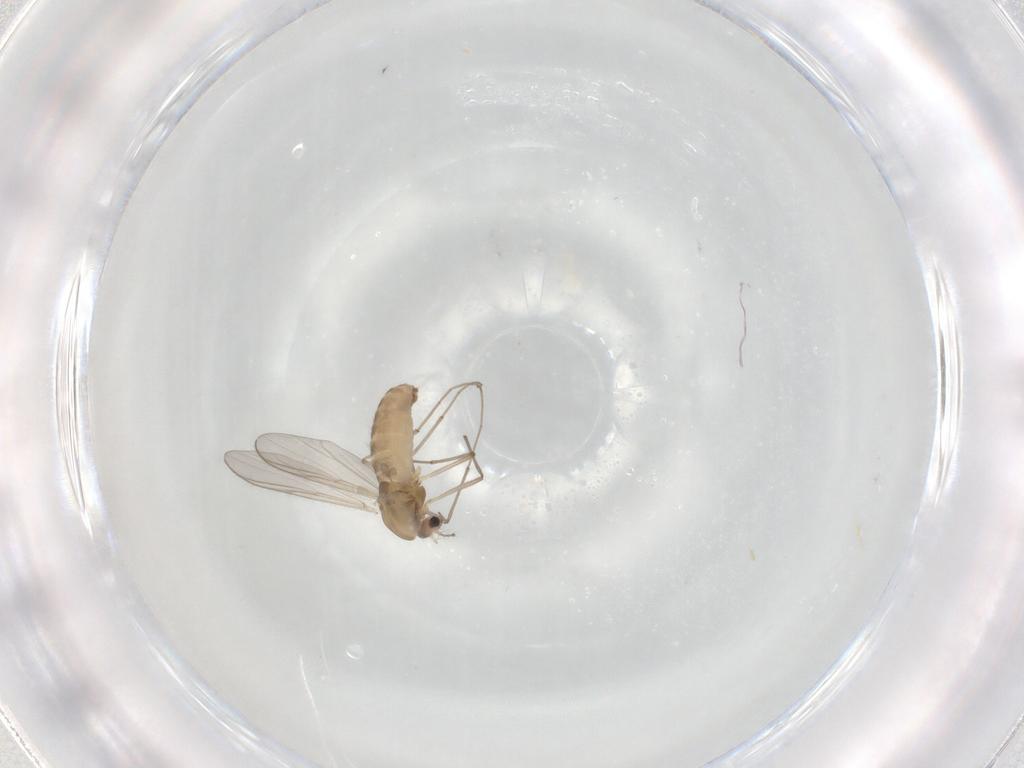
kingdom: Animalia
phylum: Arthropoda
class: Insecta
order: Diptera
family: Chironomidae
